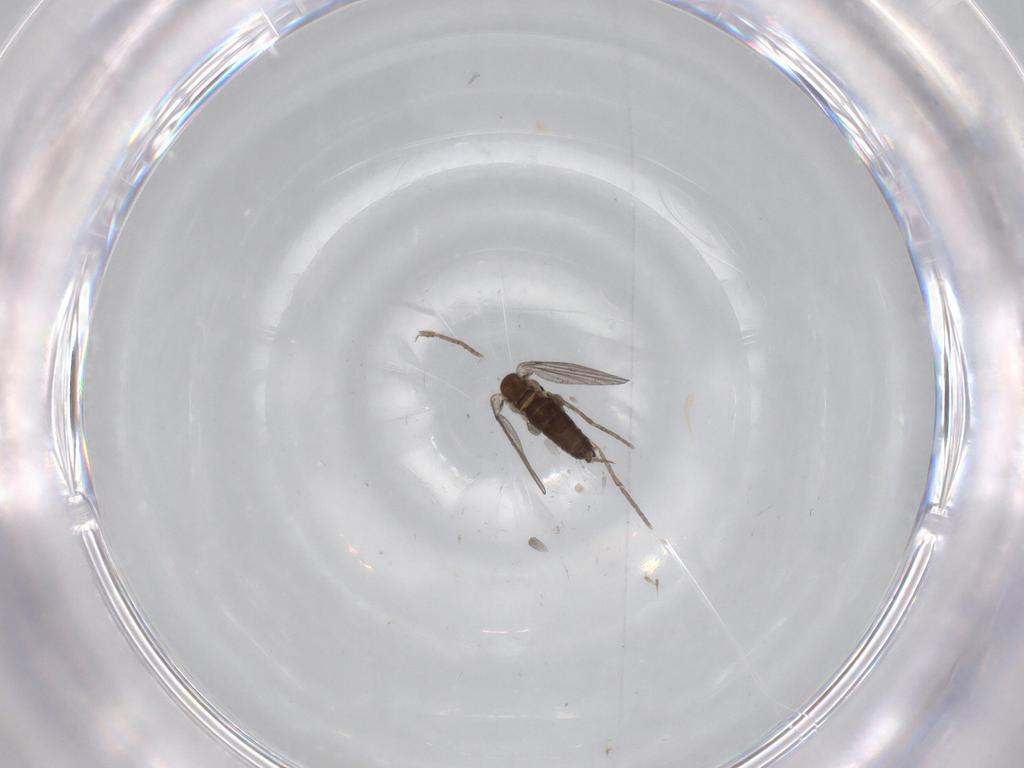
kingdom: Animalia
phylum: Arthropoda
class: Insecta
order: Diptera
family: Chironomidae
